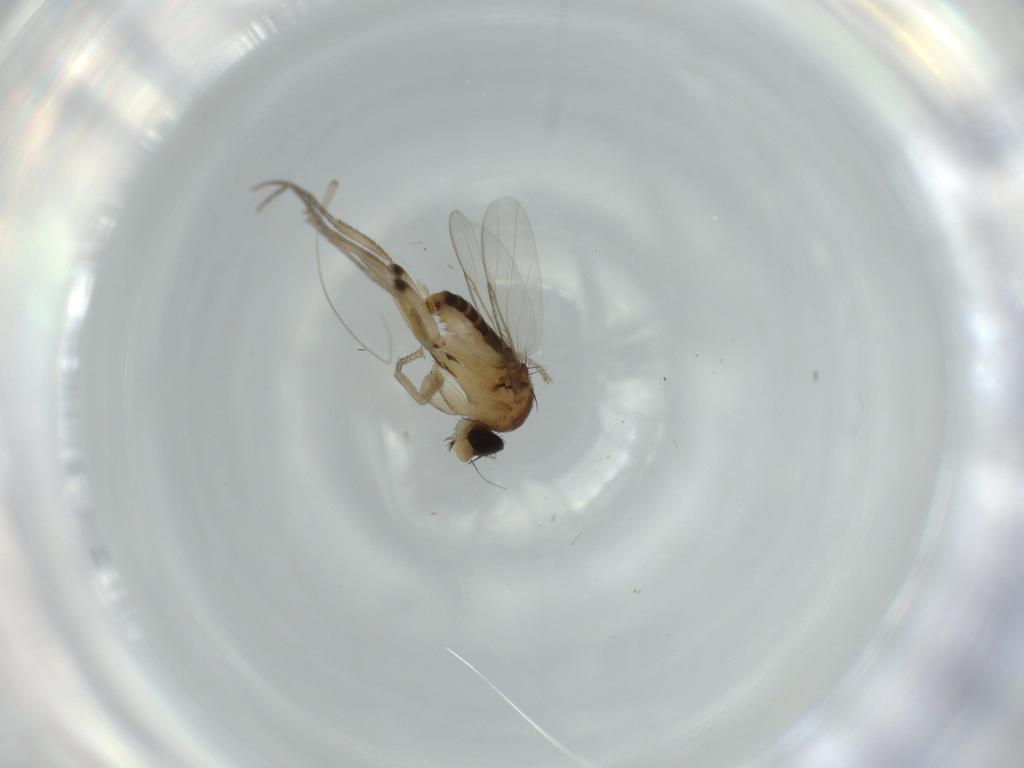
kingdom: Animalia
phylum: Arthropoda
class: Insecta
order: Diptera
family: Phoridae
